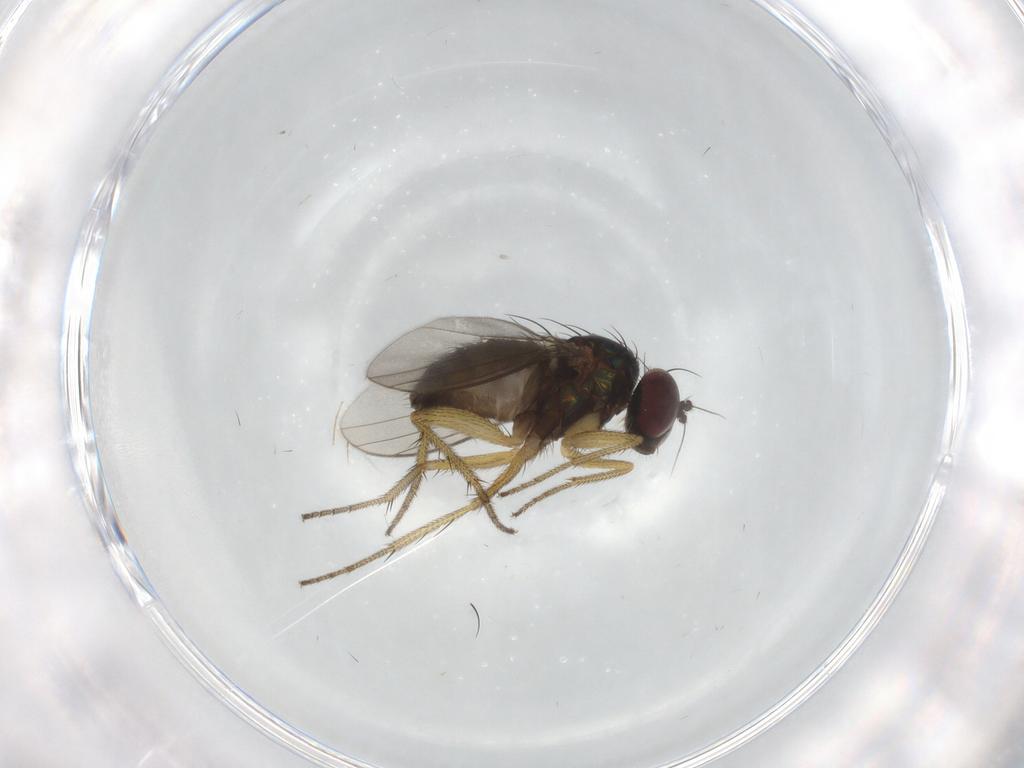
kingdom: Animalia
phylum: Arthropoda
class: Insecta
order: Diptera
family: Chironomidae
